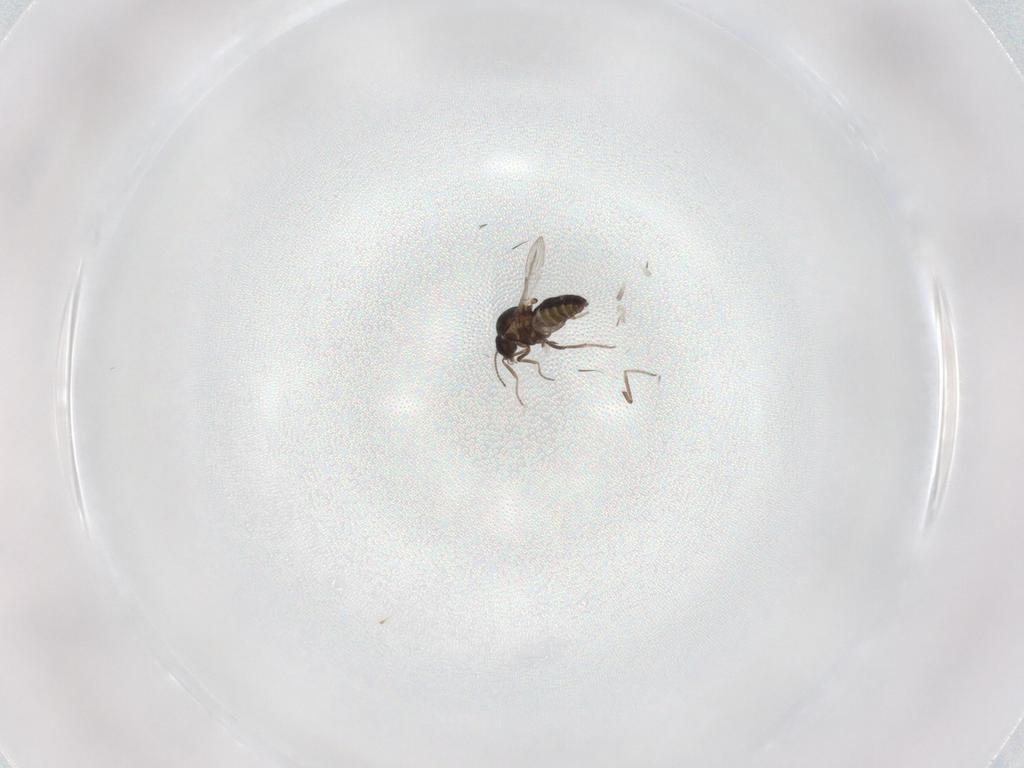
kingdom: Animalia
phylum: Arthropoda
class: Insecta
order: Diptera
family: Ceratopogonidae
